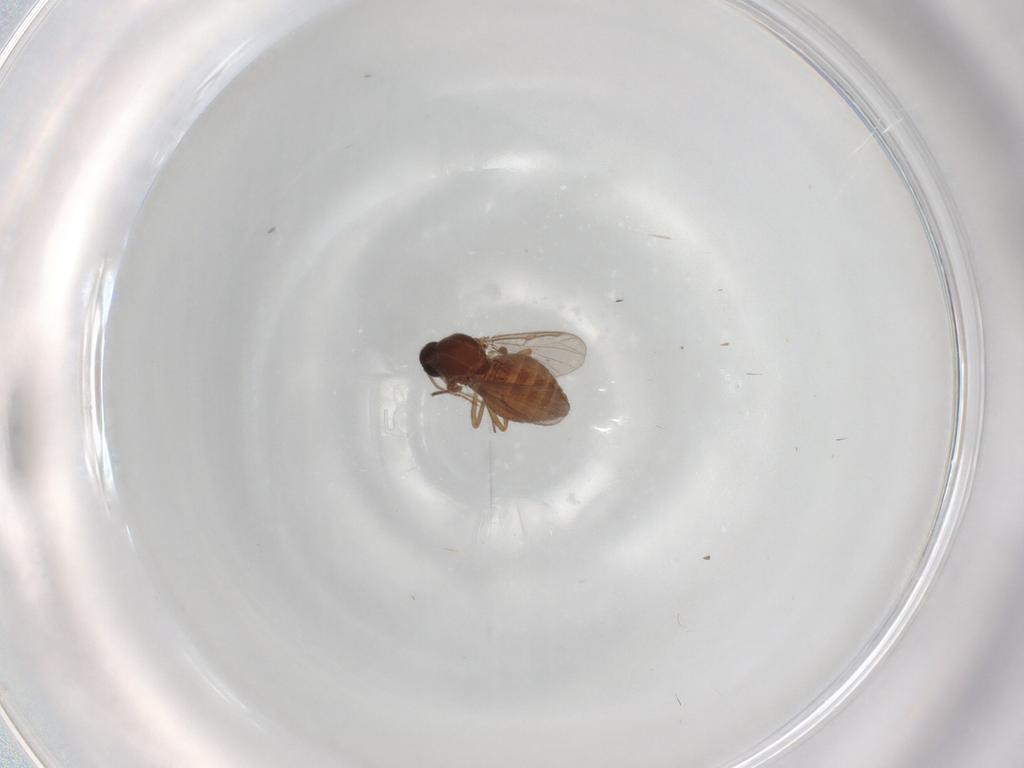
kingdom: Animalia
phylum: Arthropoda
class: Insecta
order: Diptera
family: Ceratopogonidae
